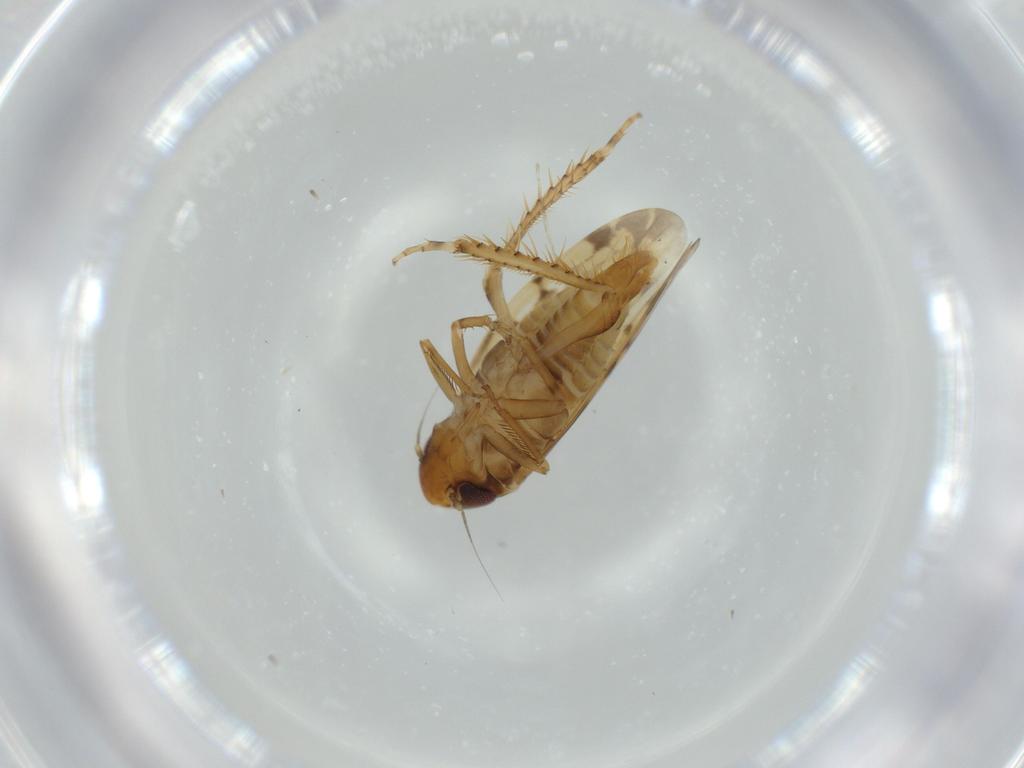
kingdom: Animalia
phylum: Arthropoda
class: Insecta
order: Hemiptera
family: Cicadellidae
